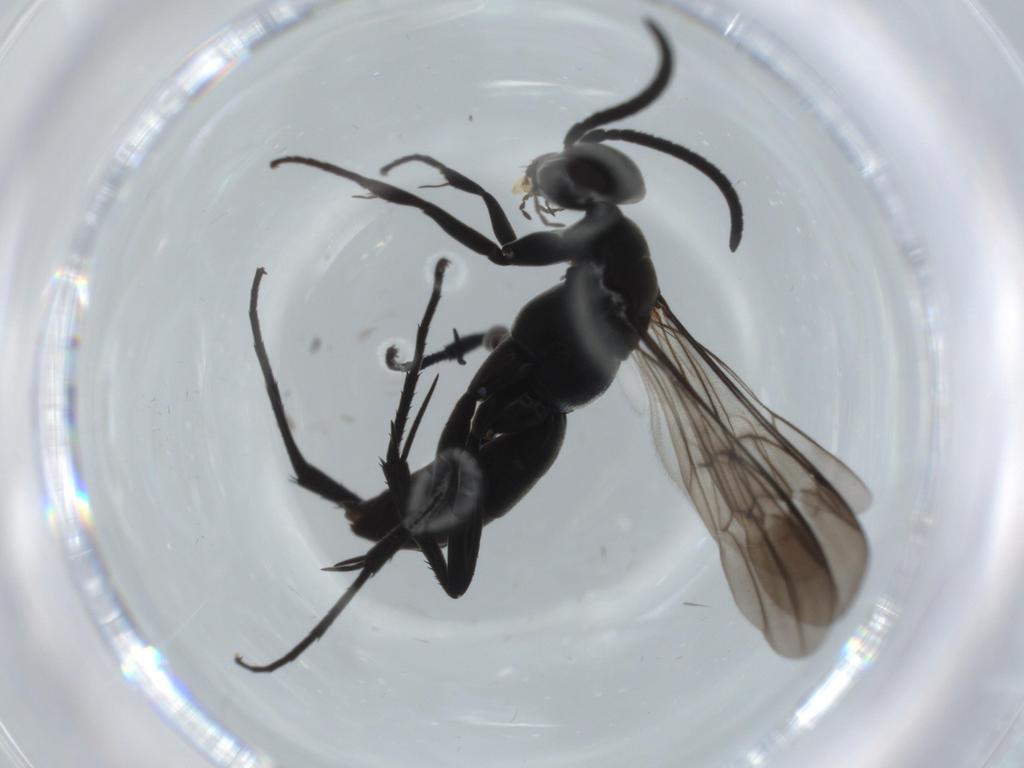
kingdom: Animalia
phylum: Arthropoda
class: Insecta
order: Hymenoptera
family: Pompilidae
